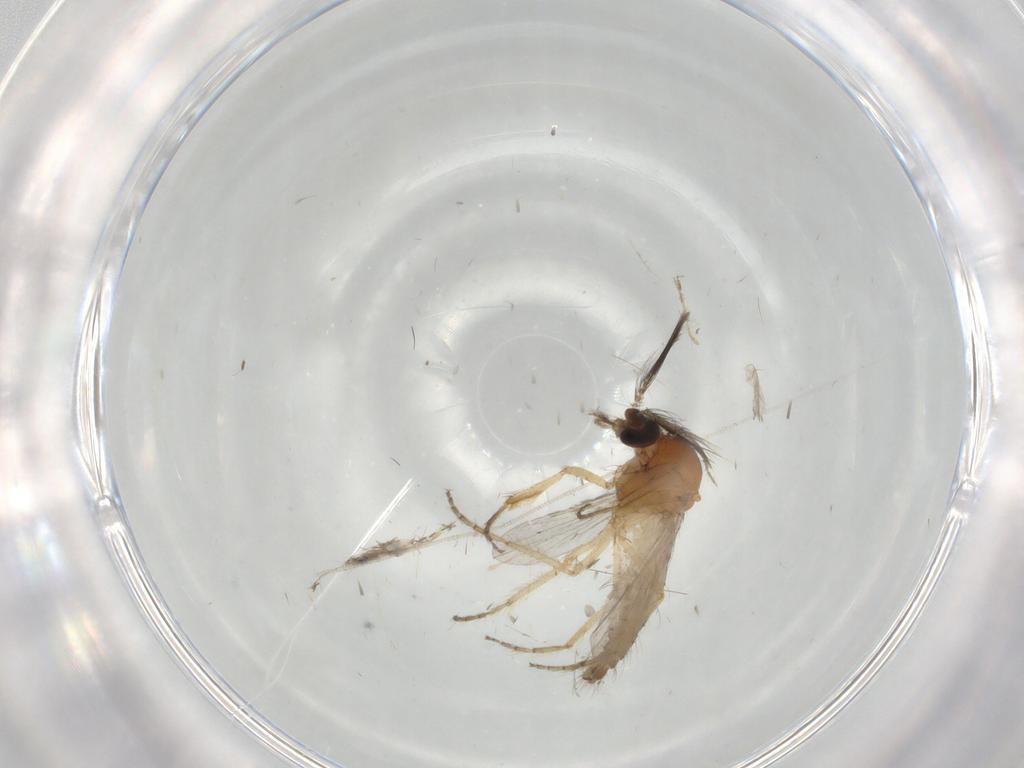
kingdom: Animalia
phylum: Arthropoda
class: Insecta
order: Diptera
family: Ceratopogonidae
